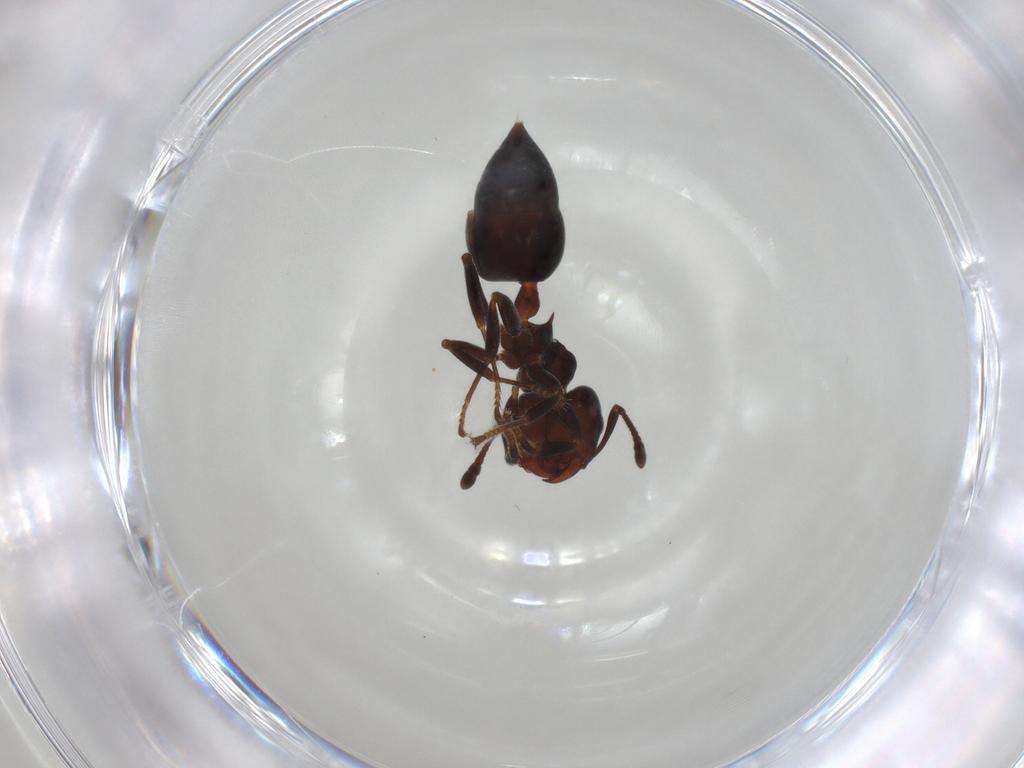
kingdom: Animalia
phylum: Arthropoda
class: Insecta
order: Hymenoptera
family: Formicidae
